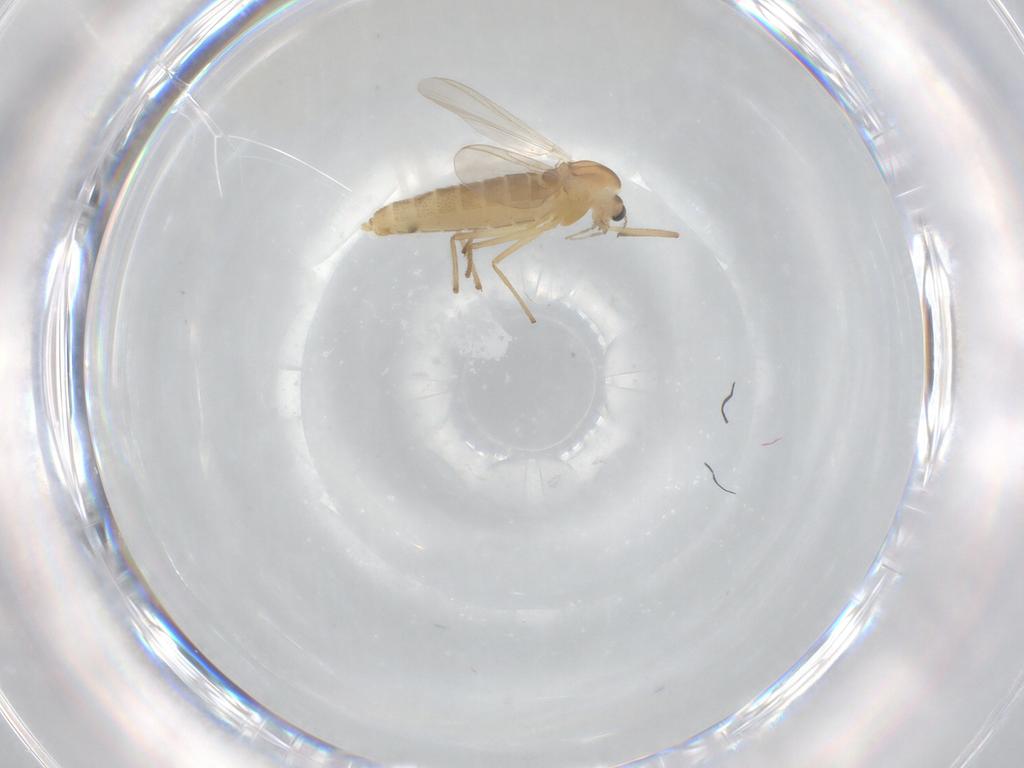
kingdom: Animalia
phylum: Arthropoda
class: Insecta
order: Diptera
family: Chironomidae
